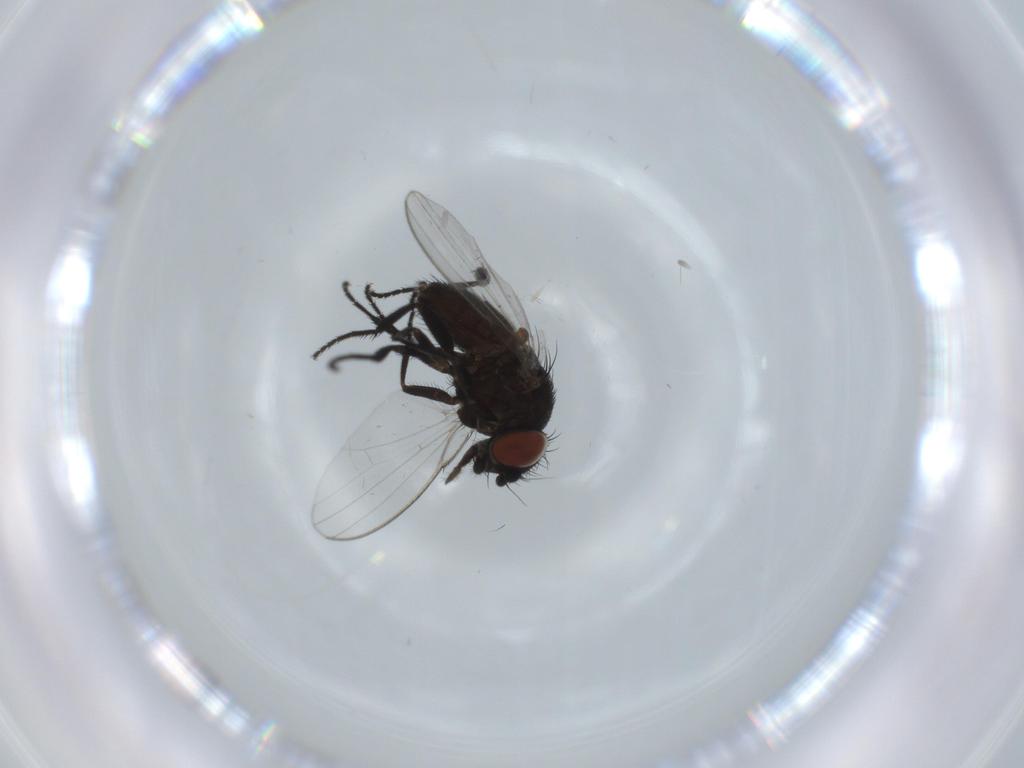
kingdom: Animalia
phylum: Arthropoda
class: Insecta
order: Diptera
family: Milichiidae
